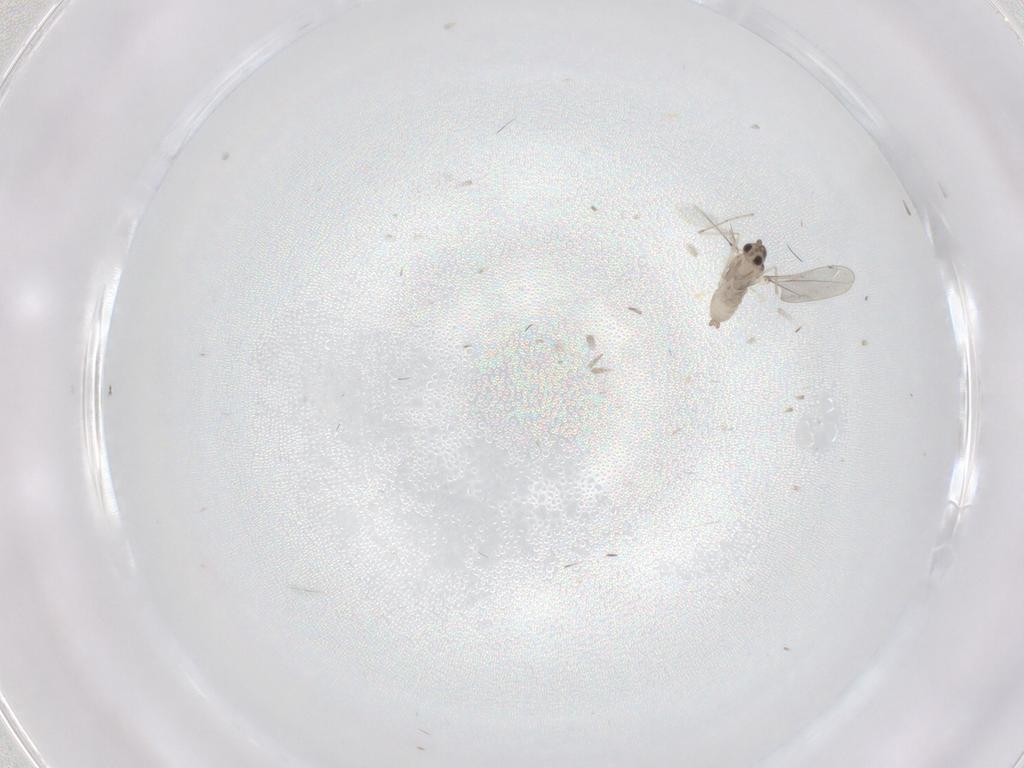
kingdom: Animalia
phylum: Arthropoda
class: Insecta
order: Diptera
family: Cecidomyiidae
